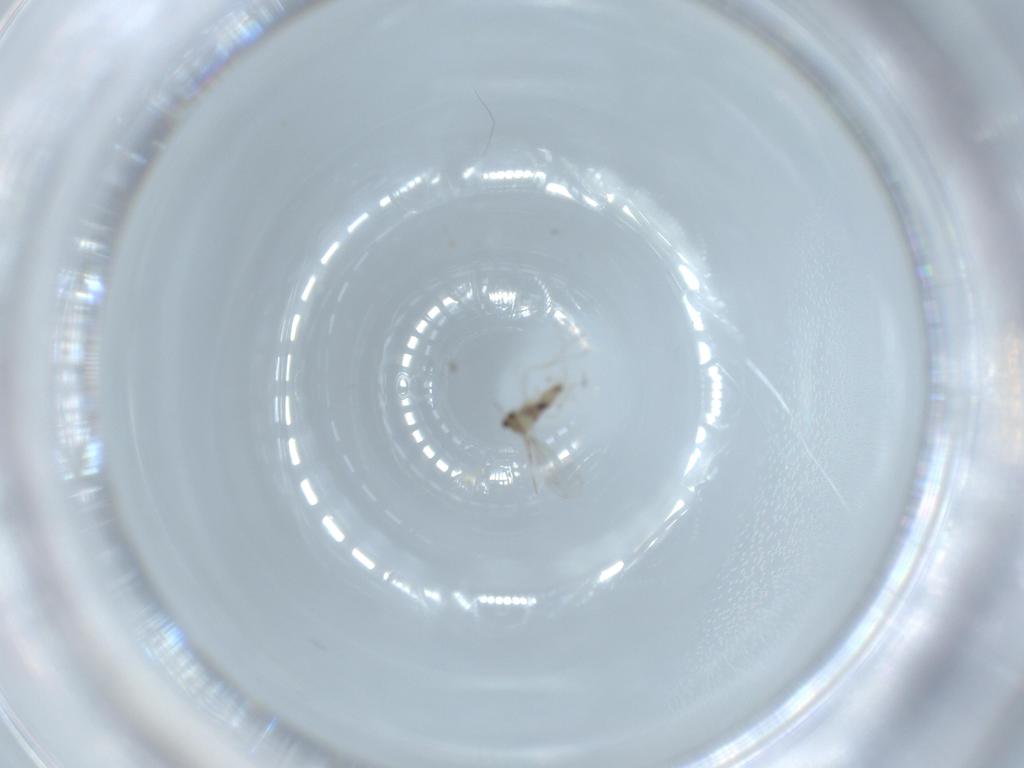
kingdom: Animalia
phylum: Arthropoda
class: Insecta
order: Diptera
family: Cecidomyiidae
